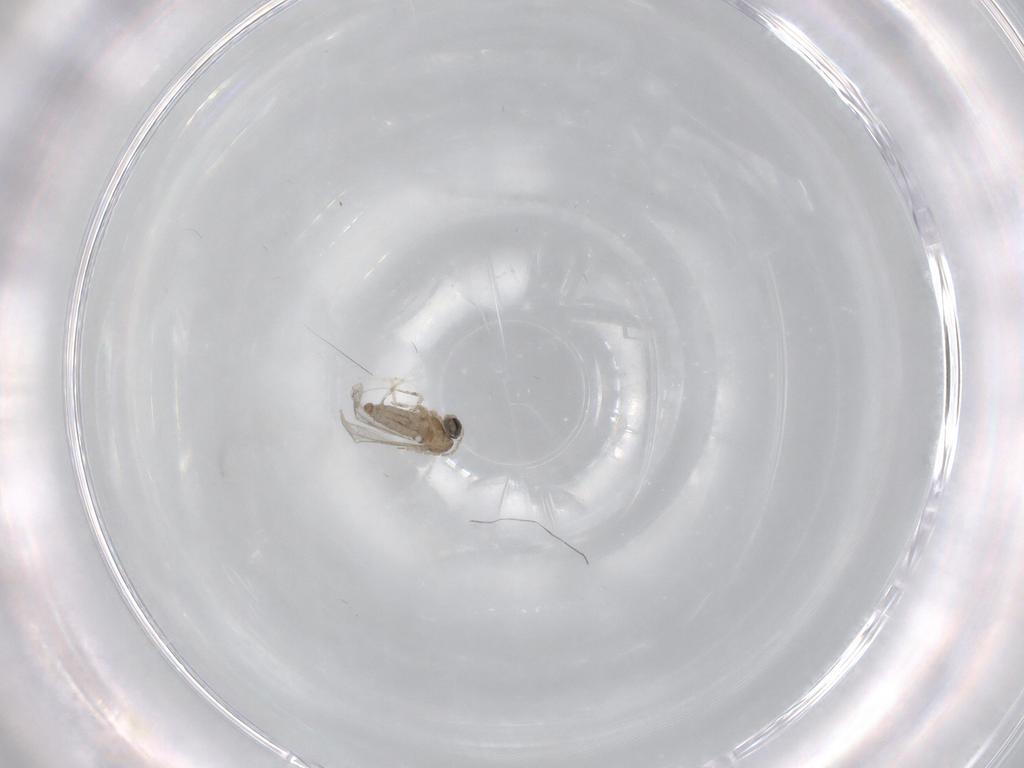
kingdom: Animalia
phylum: Arthropoda
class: Insecta
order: Diptera
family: Cecidomyiidae
